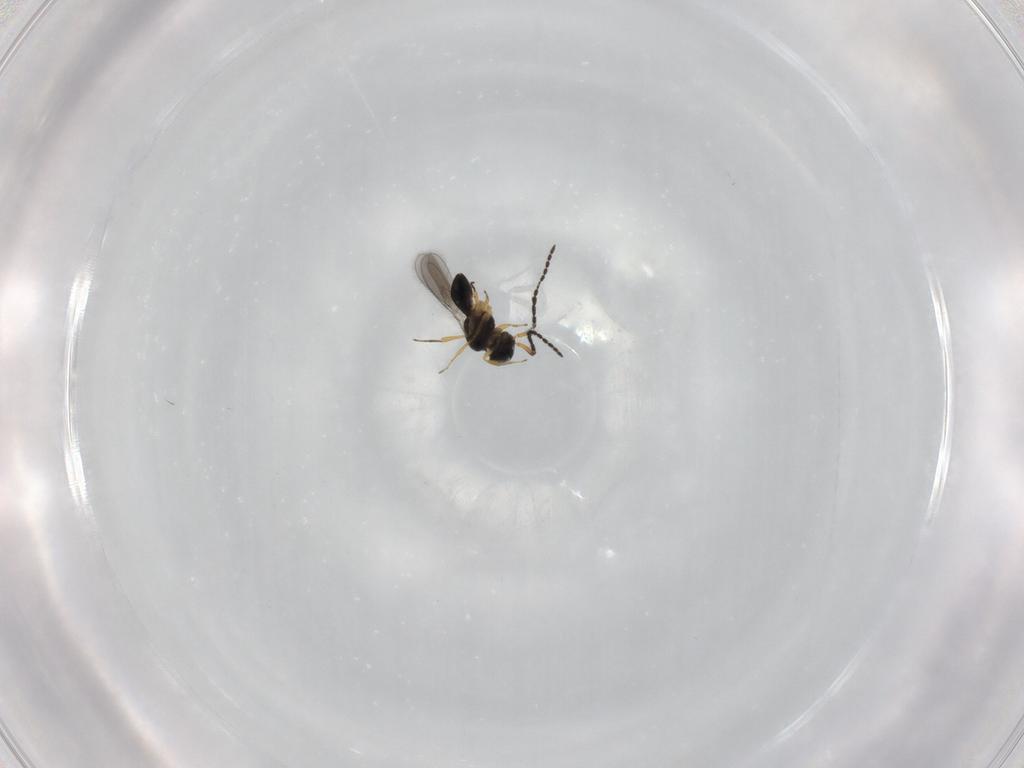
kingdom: Animalia
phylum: Arthropoda
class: Insecta
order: Hymenoptera
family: Scelionidae
